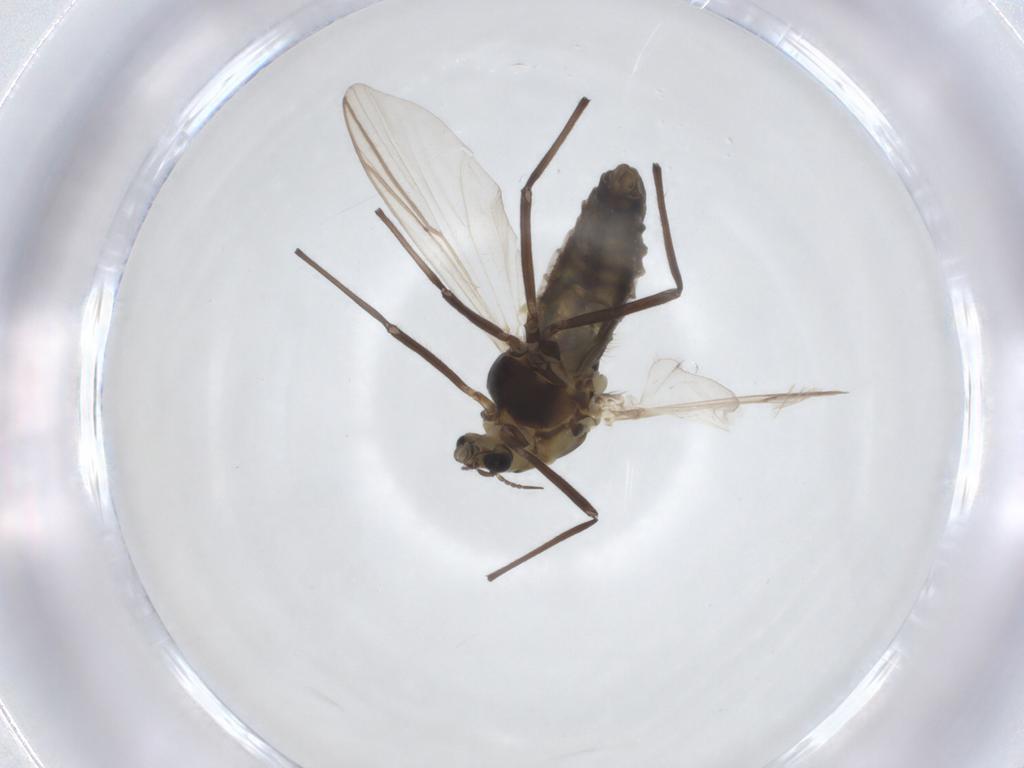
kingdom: Animalia
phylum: Arthropoda
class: Insecta
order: Diptera
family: Chironomidae
